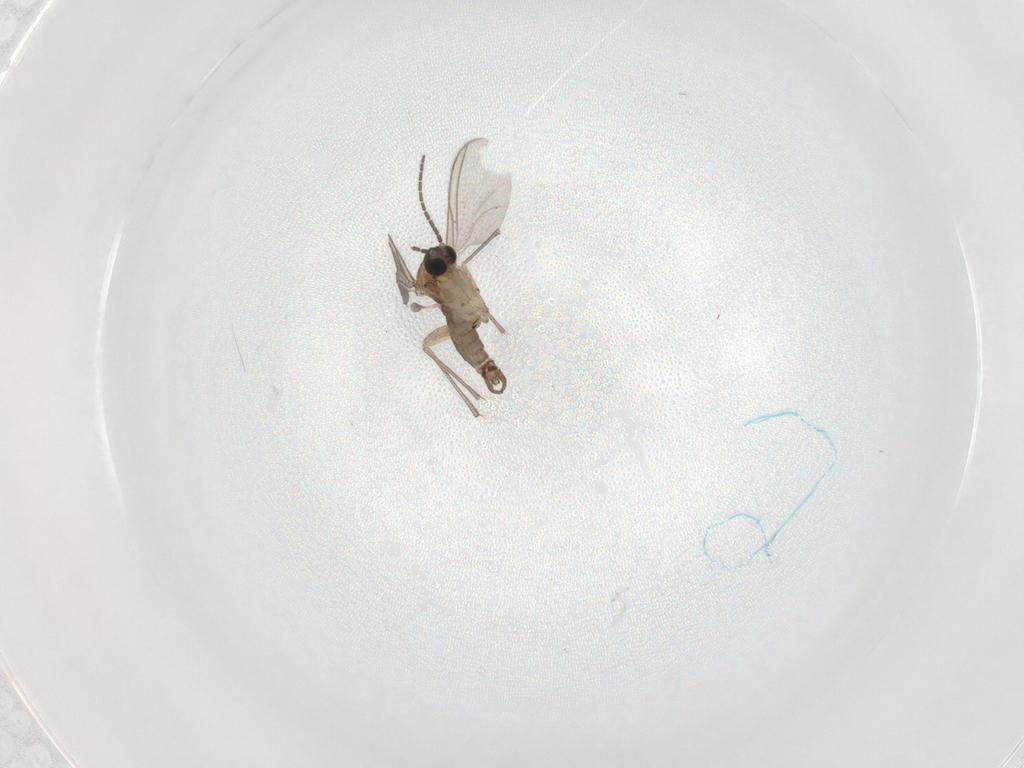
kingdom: Animalia
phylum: Arthropoda
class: Insecta
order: Diptera
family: Sciaridae
